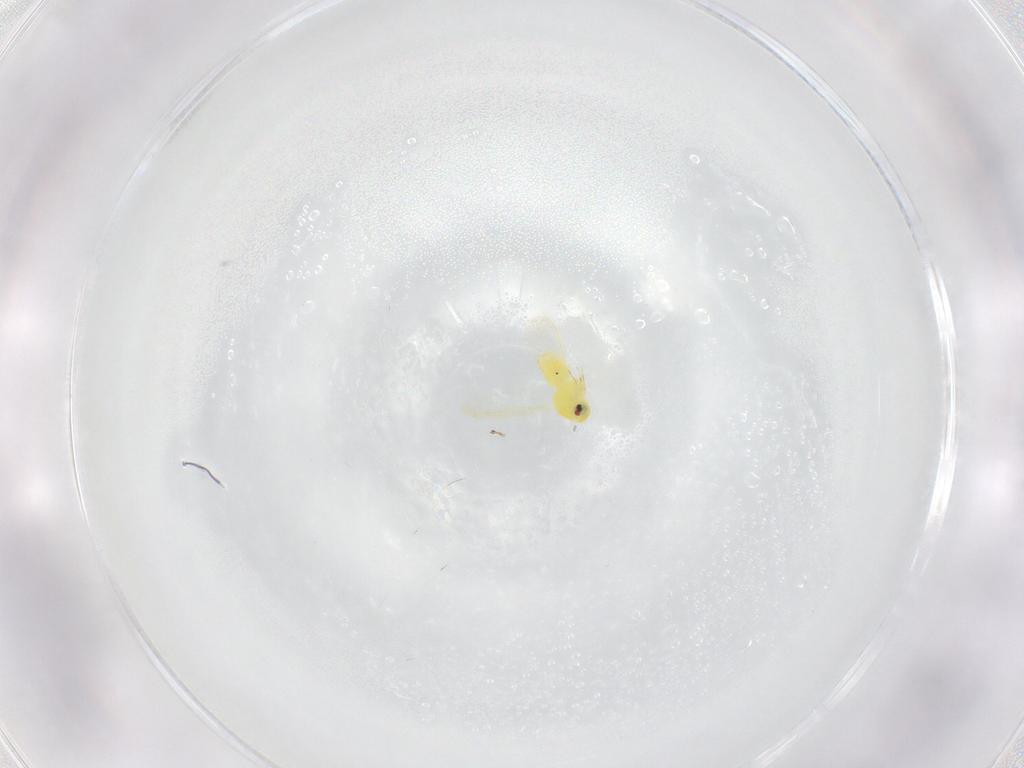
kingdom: Animalia
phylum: Arthropoda
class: Insecta
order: Hemiptera
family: Aleyrodidae
